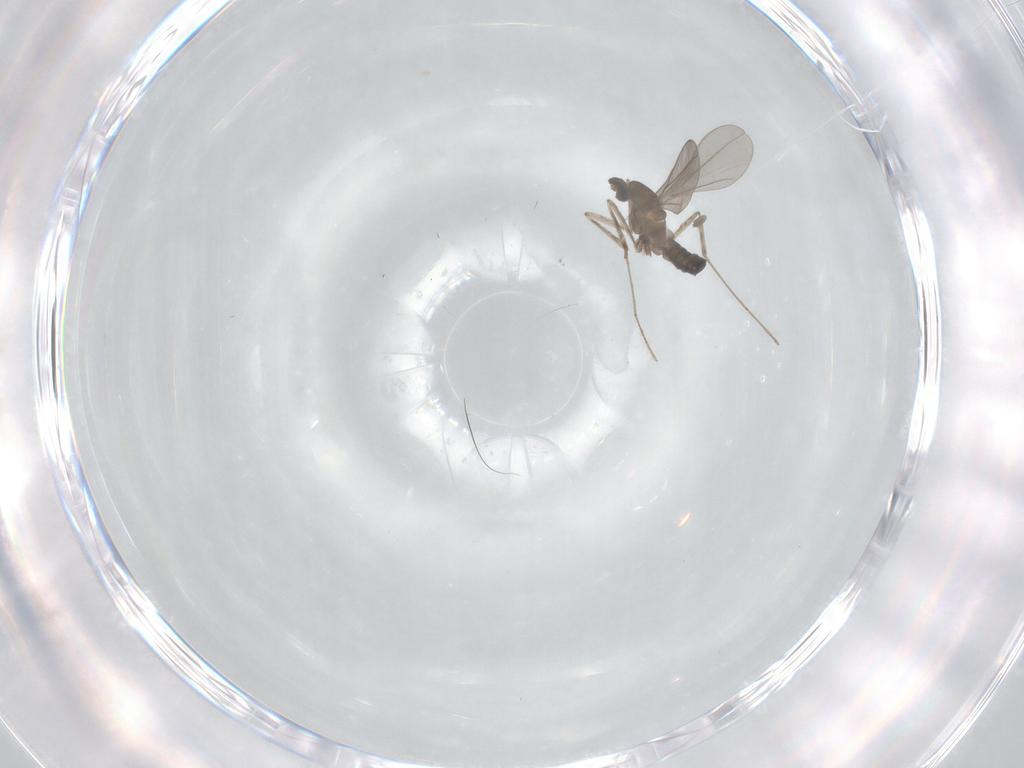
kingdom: Animalia
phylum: Arthropoda
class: Insecta
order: Diptera
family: Cecidomyiidae
